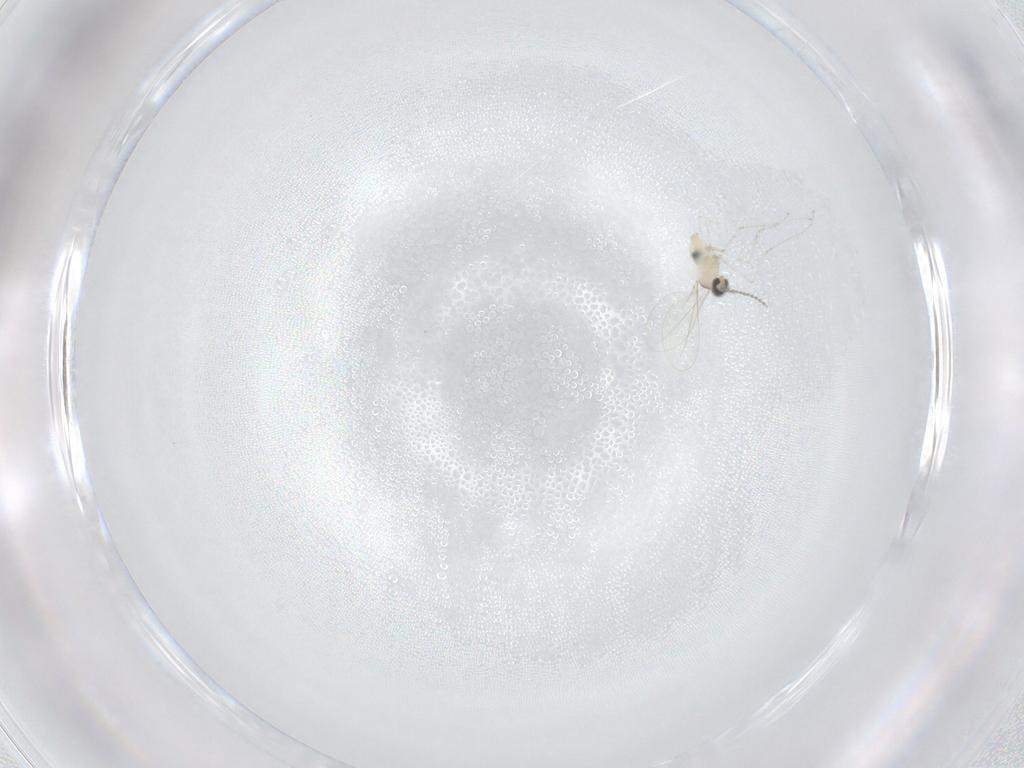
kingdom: Animalia
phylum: Arthropoda
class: Insecta
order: Diptera
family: Cecidomyiidae
